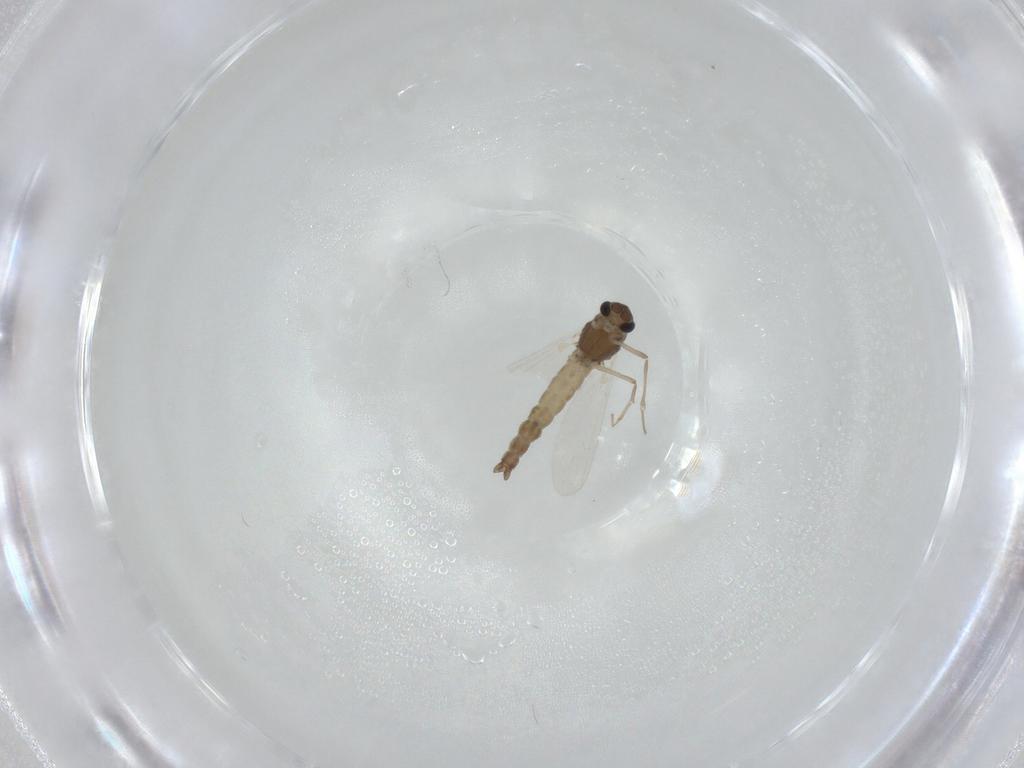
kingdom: Animalia
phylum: Arthropoda
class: Insecta
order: Diptera
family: Chironomidae
